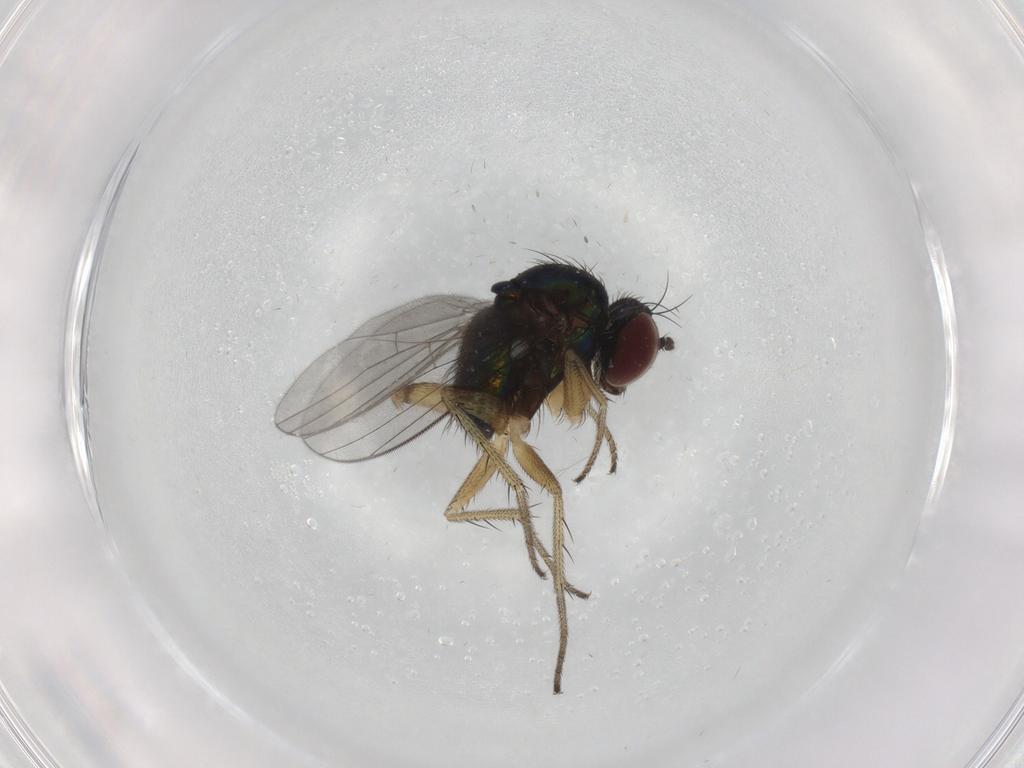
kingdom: Animalia
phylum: Arthropoda
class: Insecta
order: Diptera
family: Dolichopodidae
